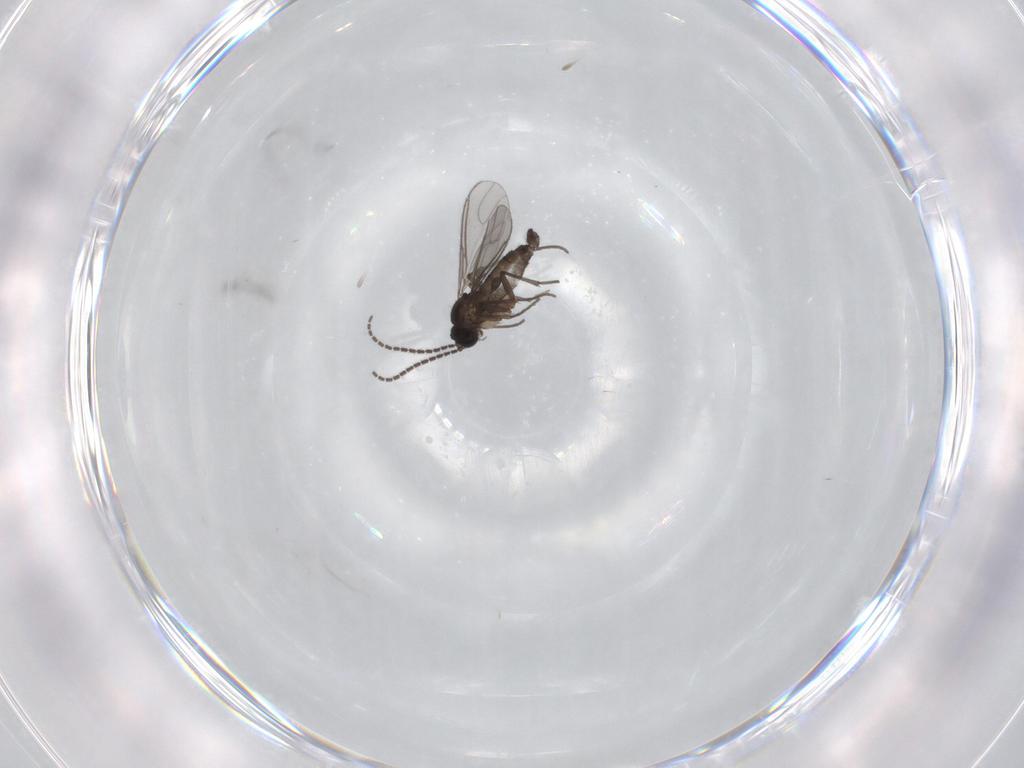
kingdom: Animalia
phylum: Arthropoda
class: Insecta
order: Diptera
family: Sciaridae
